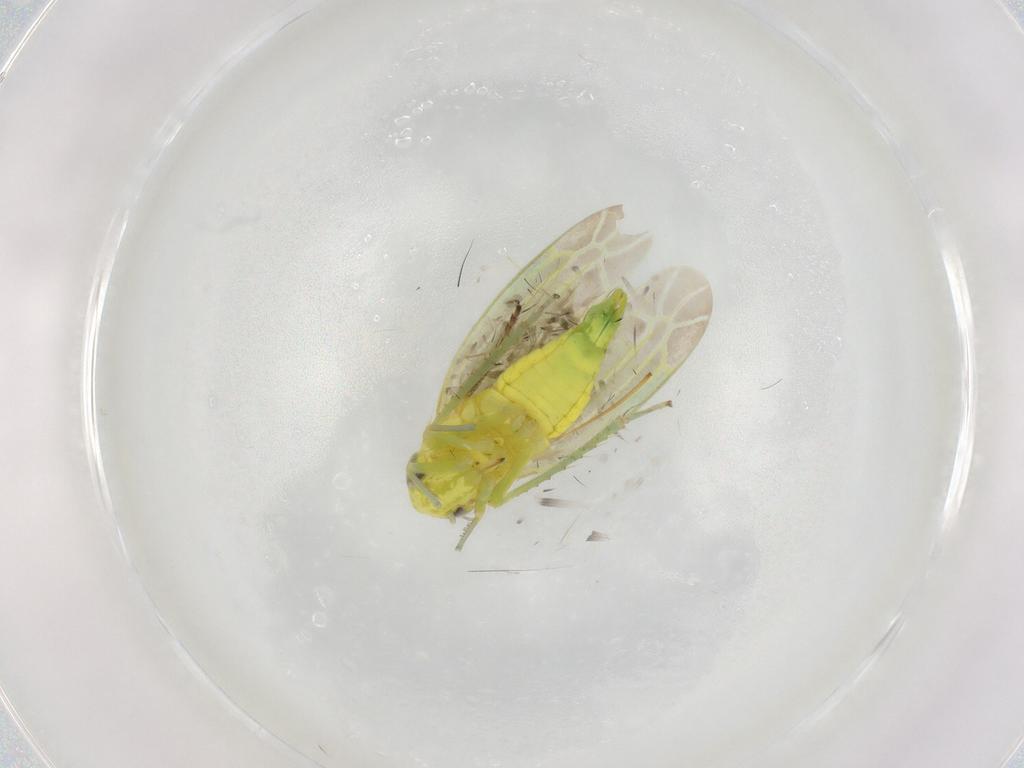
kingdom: Animalia
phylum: Arthropoda
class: Insecta
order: Hemiptera
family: Cicadellidae
